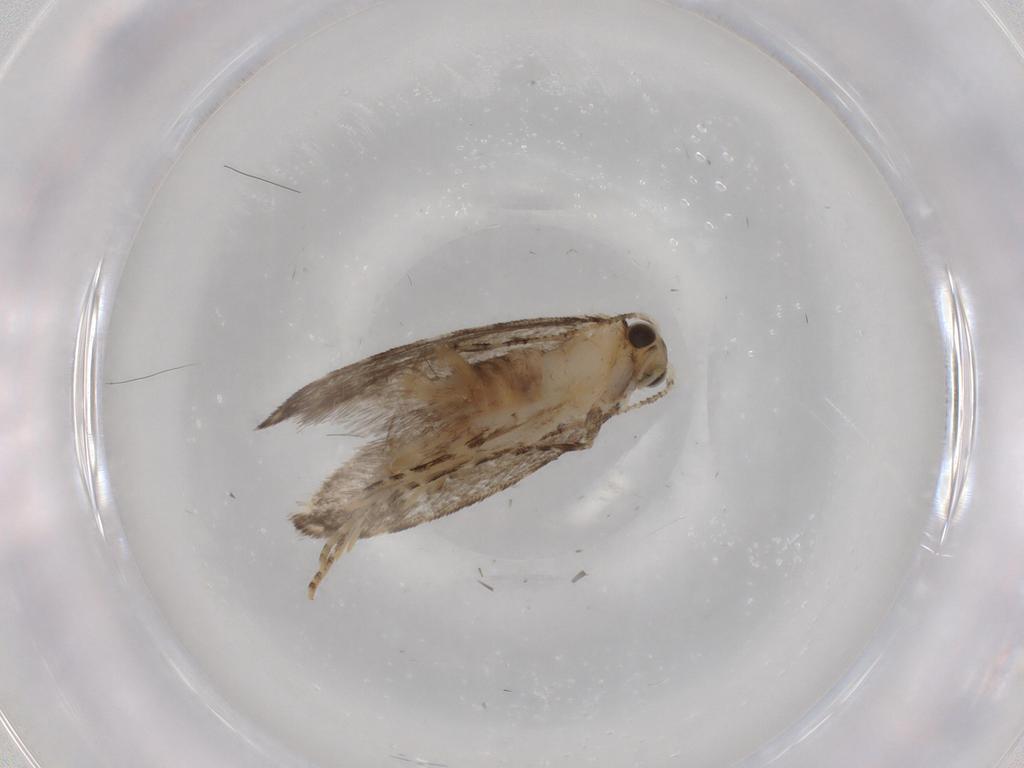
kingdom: Animalia
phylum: Arthropoda
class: Insecta
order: Lepidoptera
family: Tineidae
